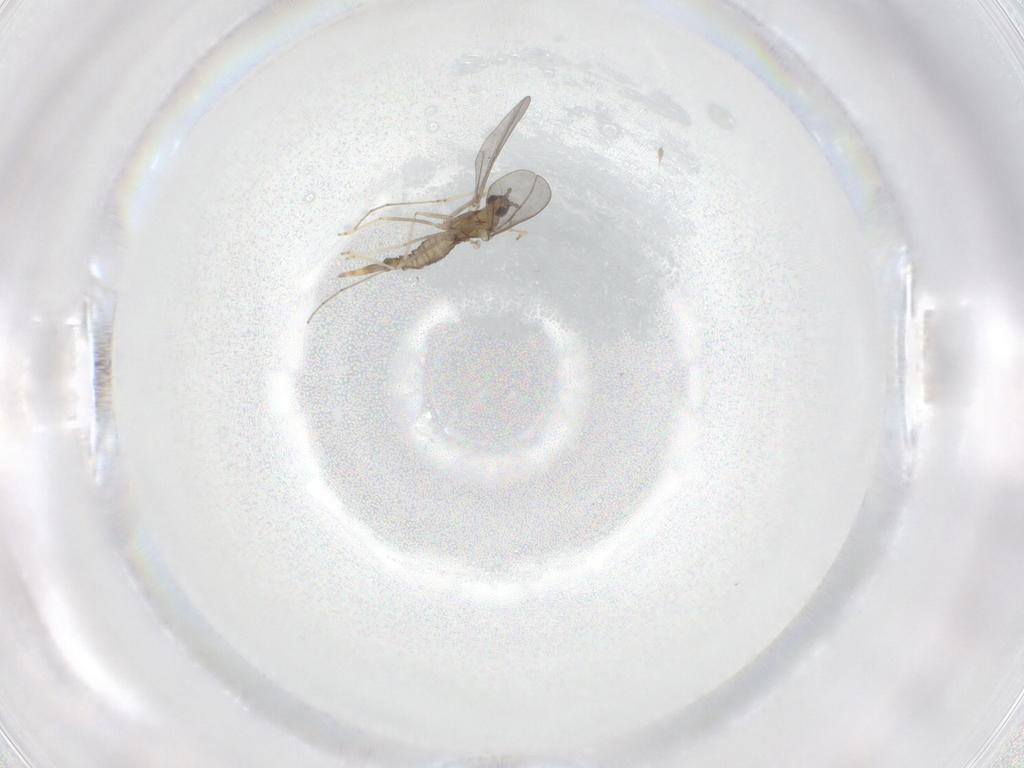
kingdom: Animalia
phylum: Arthropoda
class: Insecta
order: Diptera
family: Cecidomyiidae
